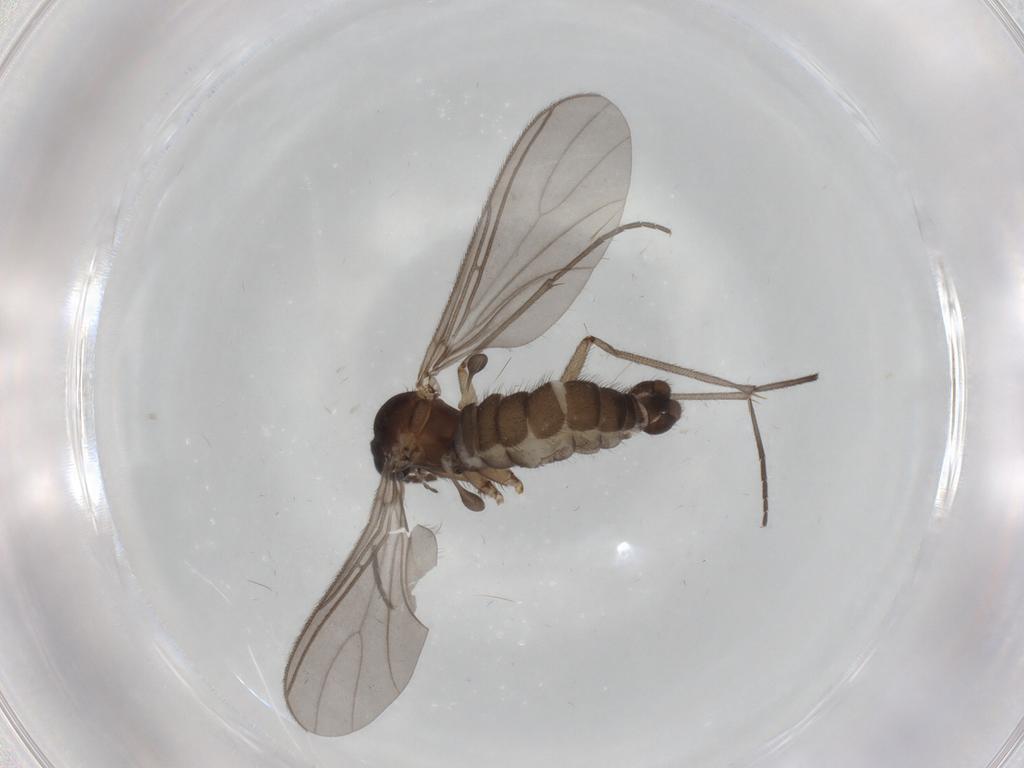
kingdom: Animalia
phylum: Arthropoda
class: Insecta
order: Diptera
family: Sciaridae
